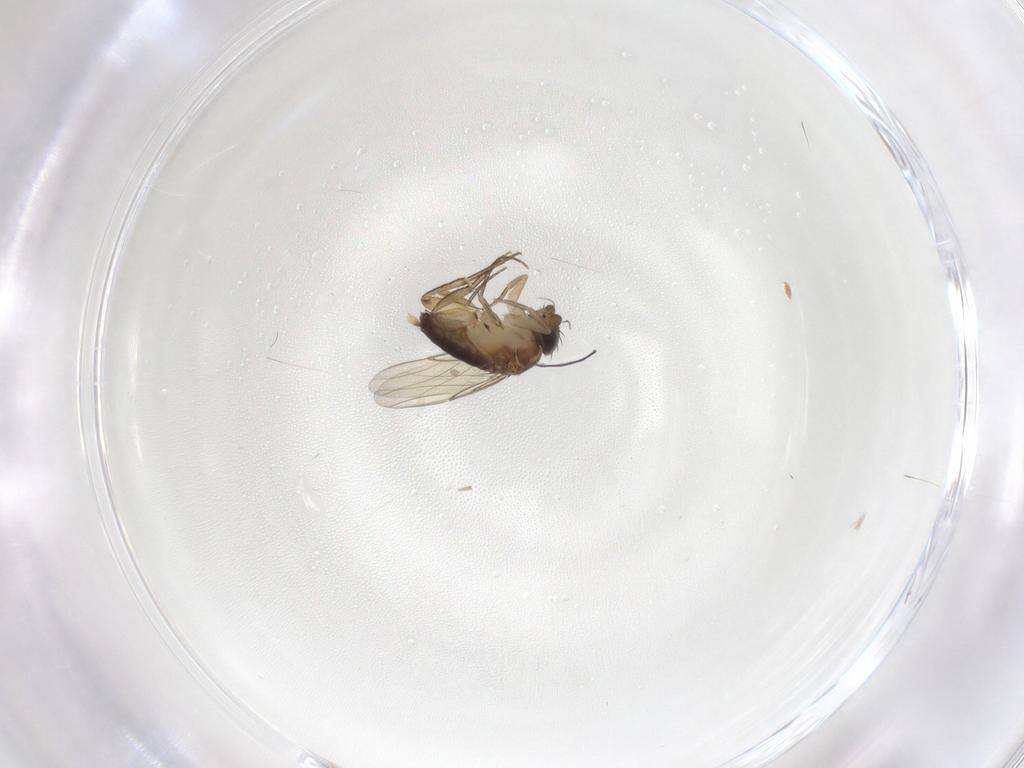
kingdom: Animalia
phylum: Arthropoda
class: Insecta
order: Diptera
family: Phoridae
